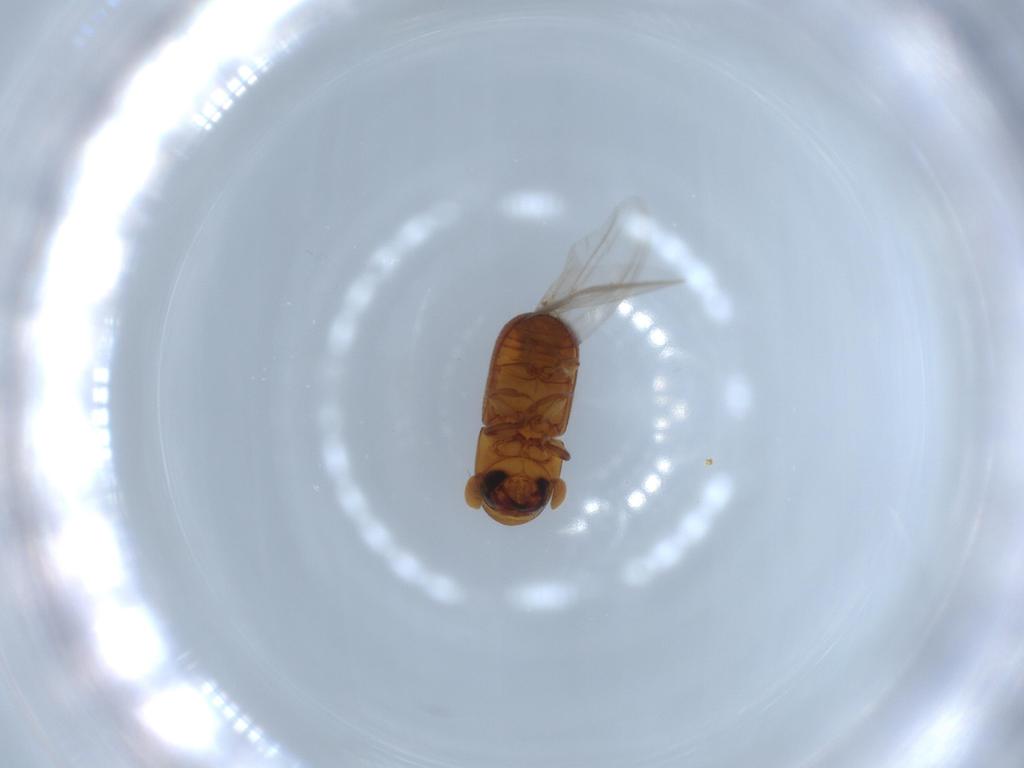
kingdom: Animalia
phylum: Arthropoda
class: Insecta
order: Coleoptera
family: Curculionidae
